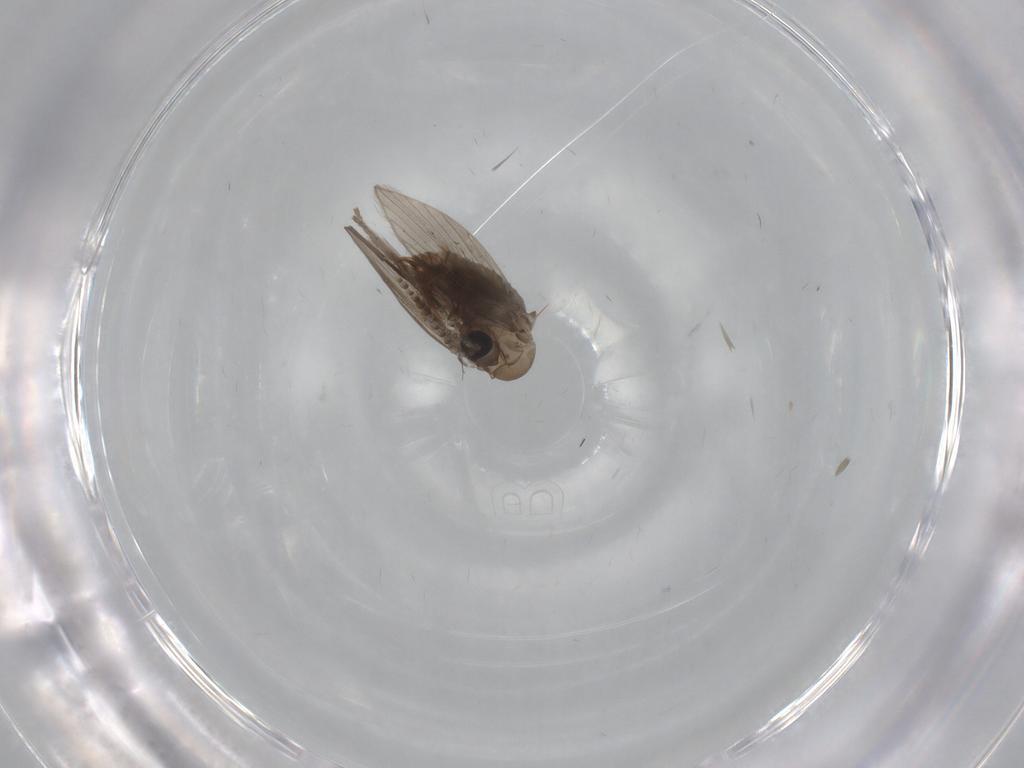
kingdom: Animalia
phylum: Arthropoda
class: Insecta
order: Diptera
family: Psychodidae
